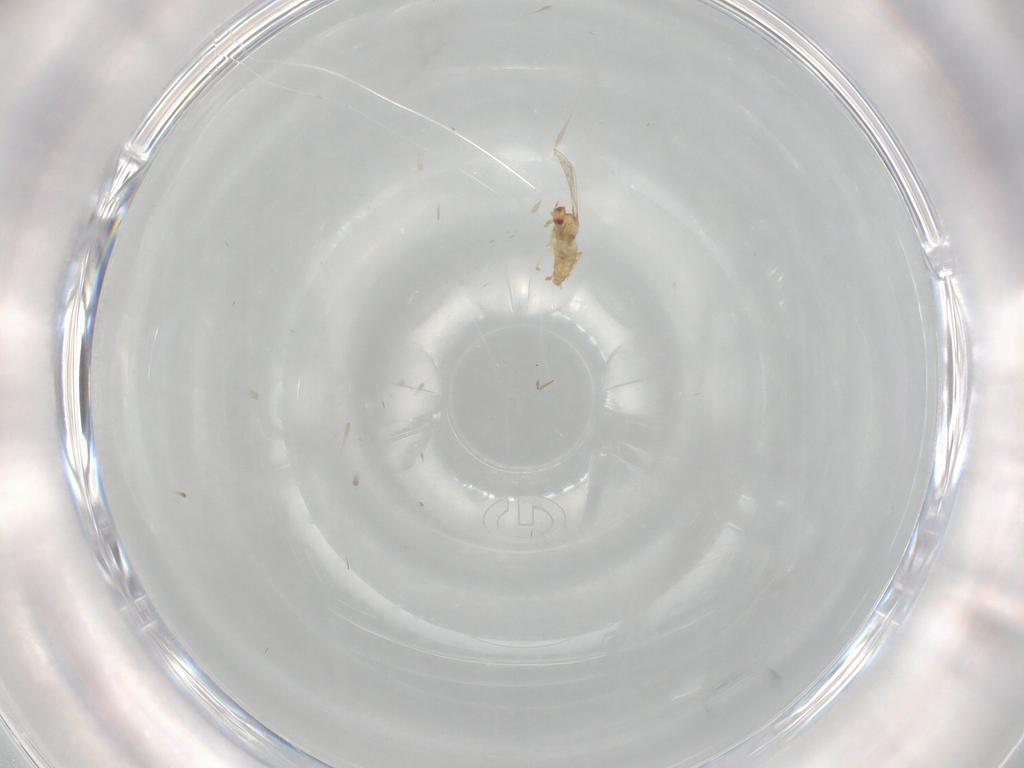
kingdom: Animalia
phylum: Arthropoda
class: Insecta
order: Diptera
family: Cecidomyiidae
